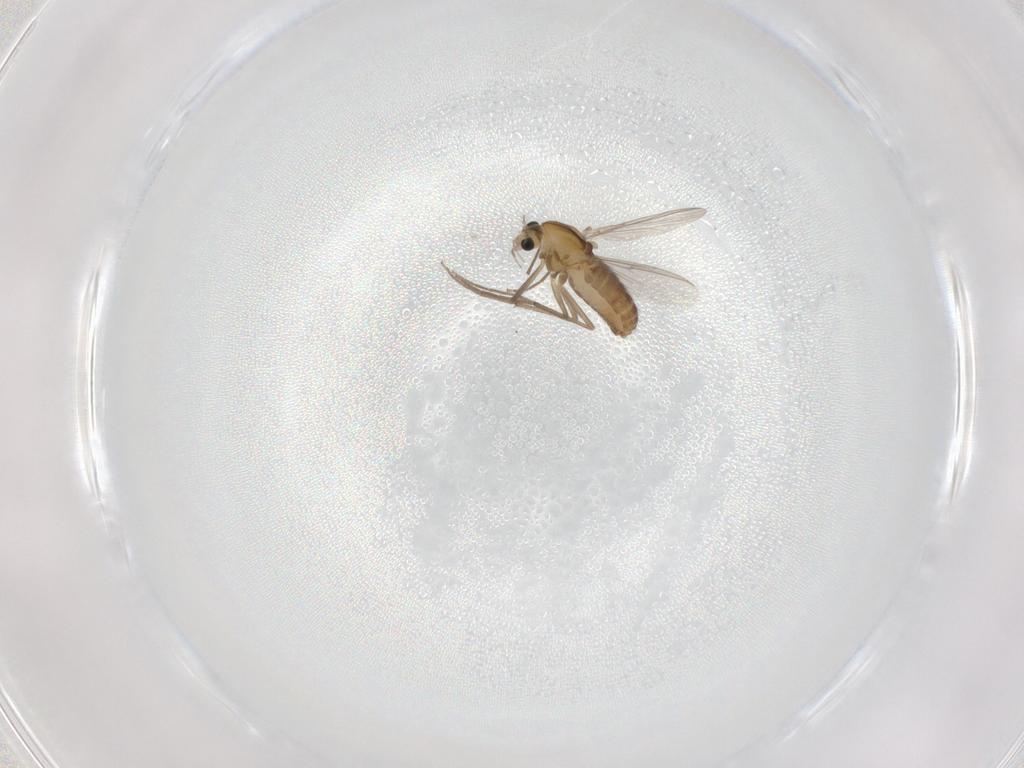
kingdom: Animalia
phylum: Arthropoda
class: Insecta
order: Diptera
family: Chironomidae
